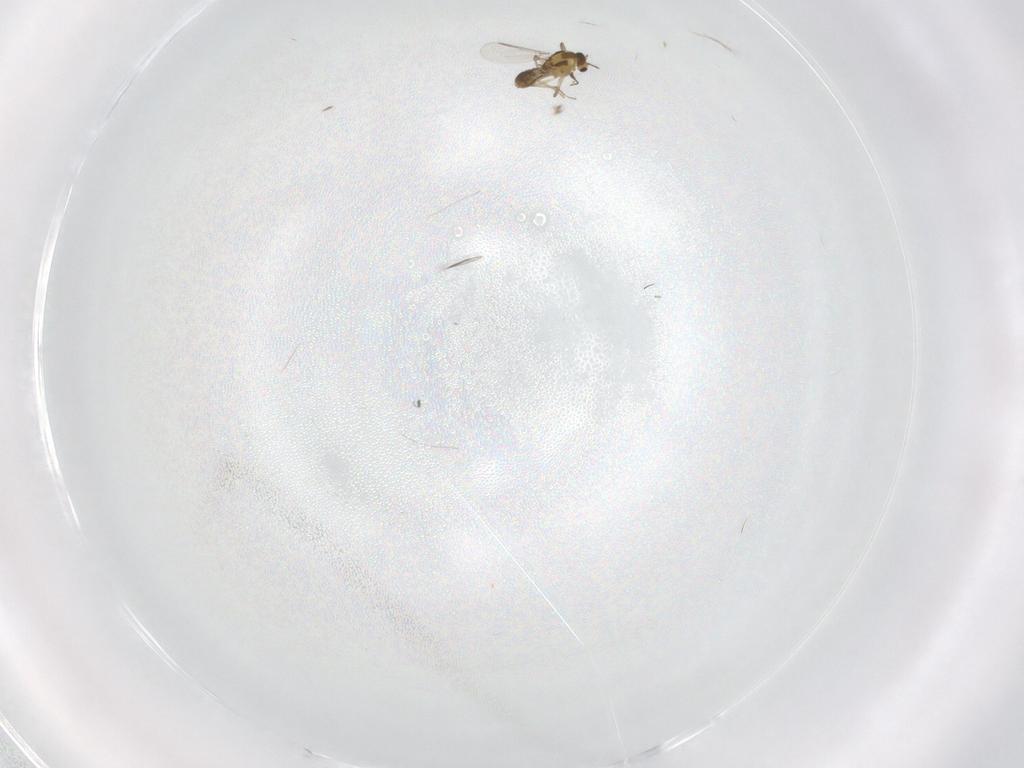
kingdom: Animalia
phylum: Arthropoda
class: Insecta
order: Diptera
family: Chironomidae
